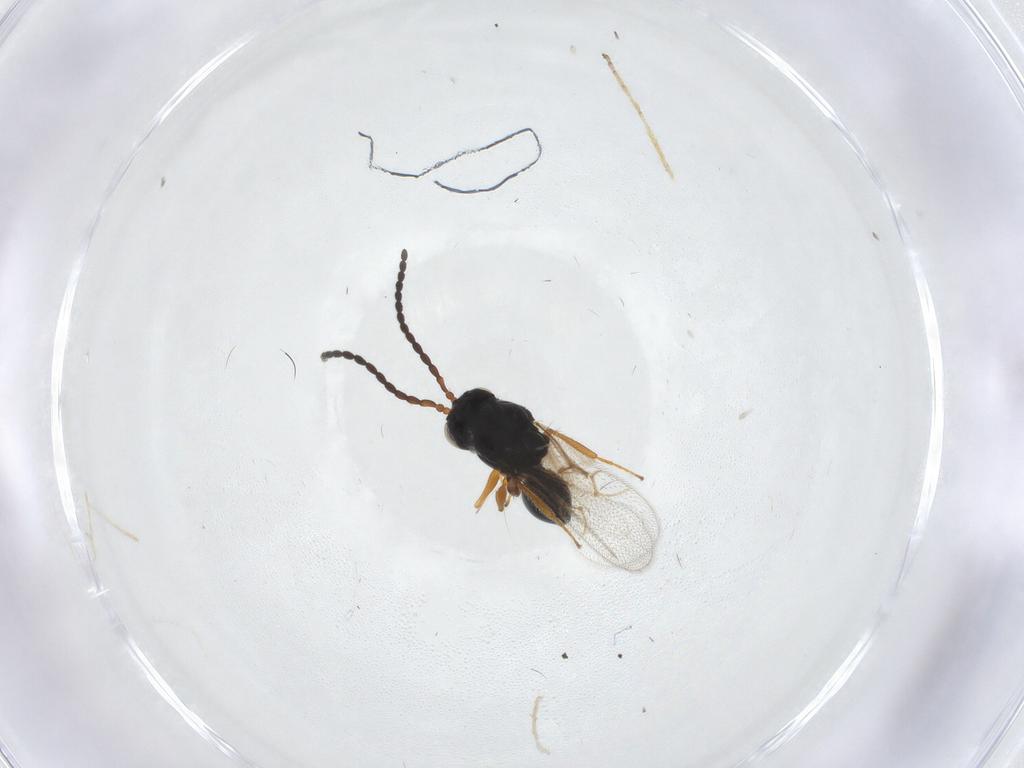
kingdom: Animalia
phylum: Arthropoda
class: Insecta
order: Hymenoptera
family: Figitidae
